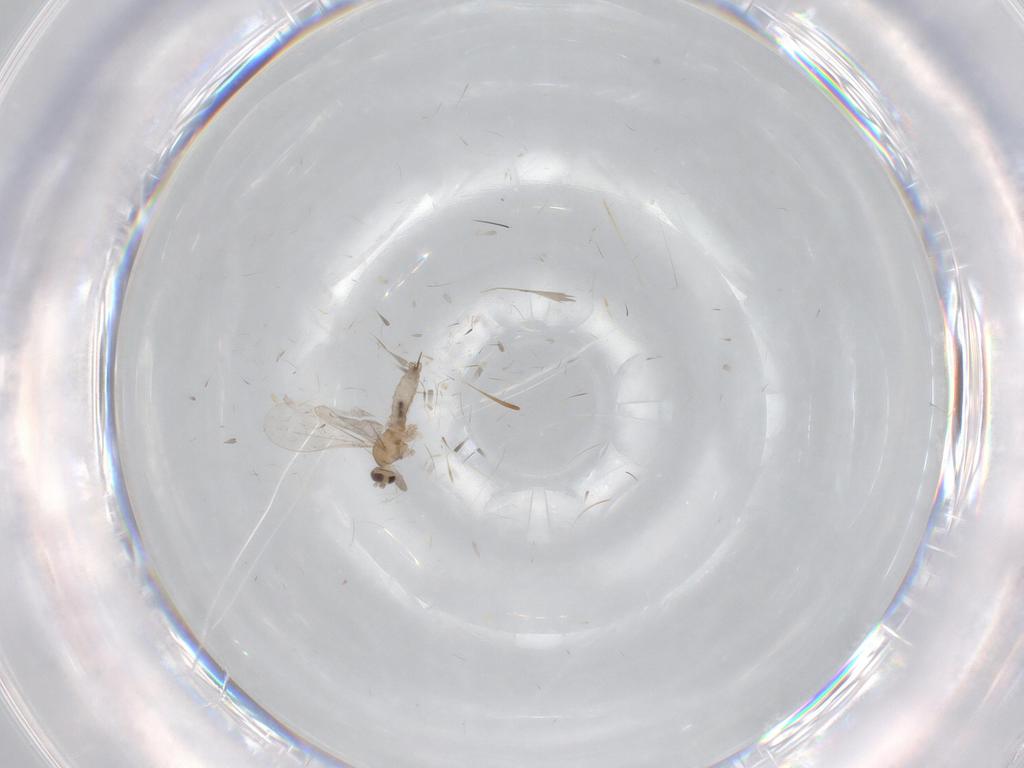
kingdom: Animalia
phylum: Arthropoda
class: Insecta
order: Diptera
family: Cecidomyiidae
